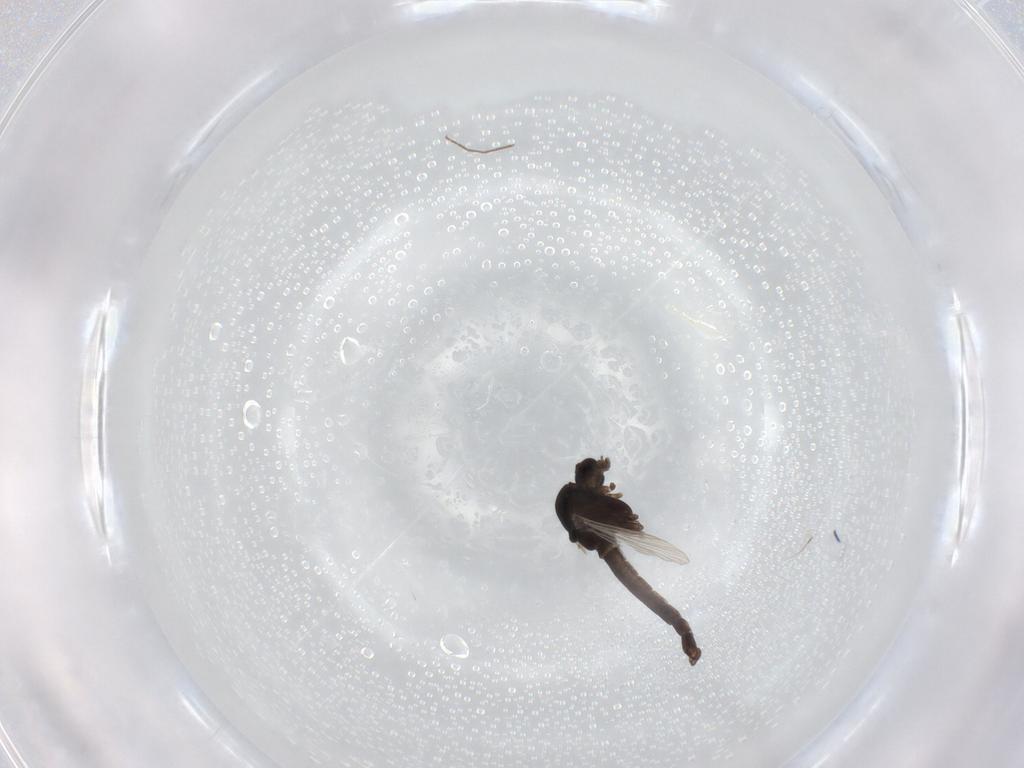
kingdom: Animalia
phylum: Arthropoda
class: Insecta
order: Diptera
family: Chironomidae
